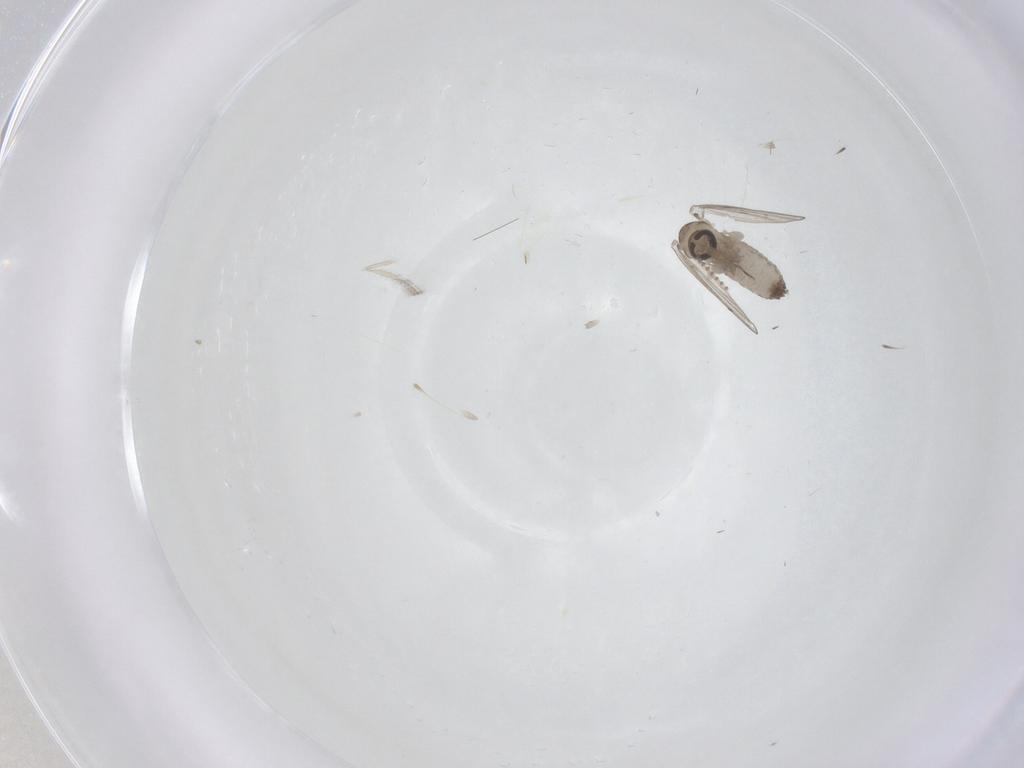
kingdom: Animalia
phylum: Arthropoda
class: Insecta
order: Diptera
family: Psychodidae
